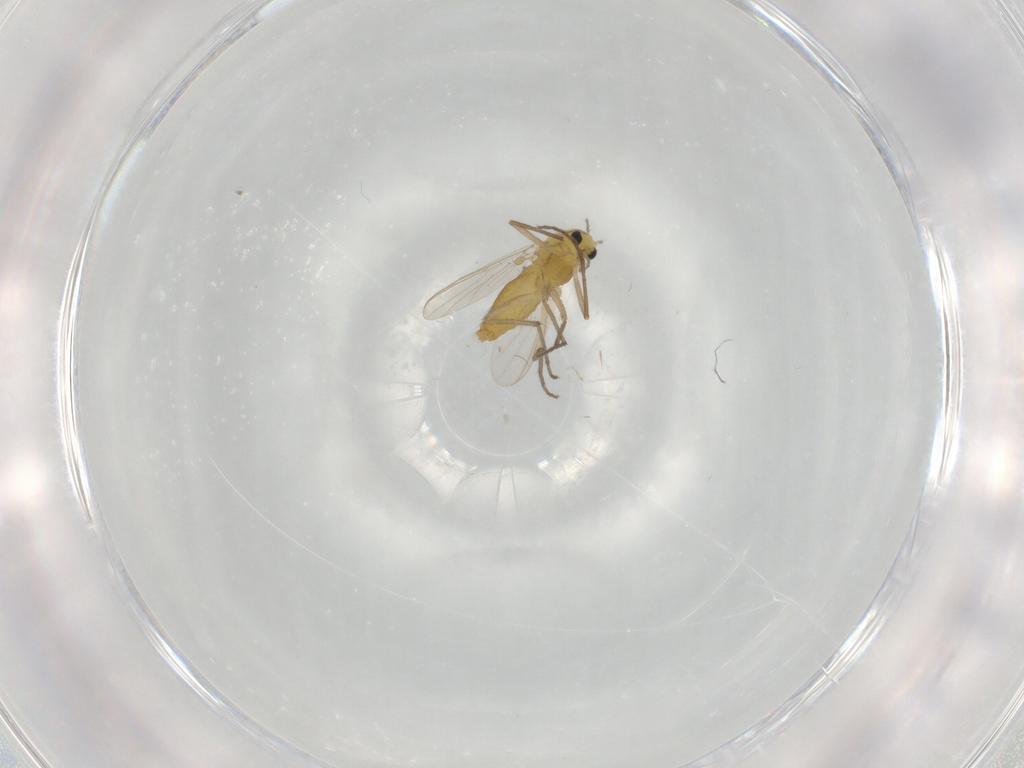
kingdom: Animalia
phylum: Arthropoda
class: Insecta
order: Diptera
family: Chironomidae
